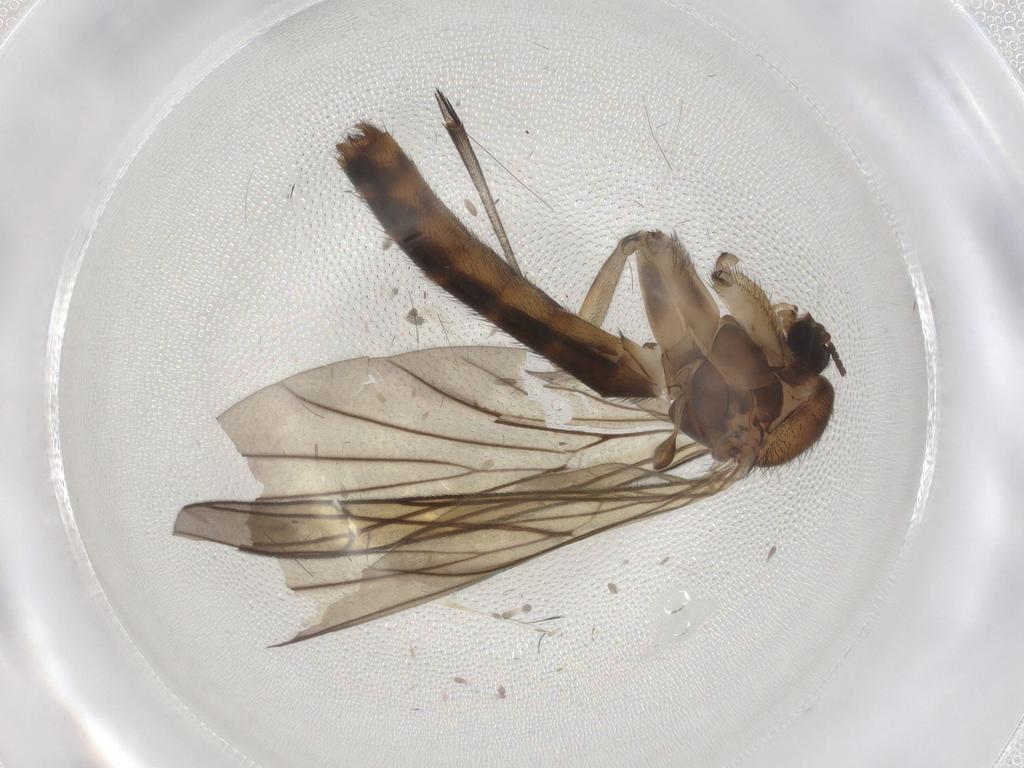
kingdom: Animalia
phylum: Arthropoda
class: Insecta
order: Diptera
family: Keroplatidae
